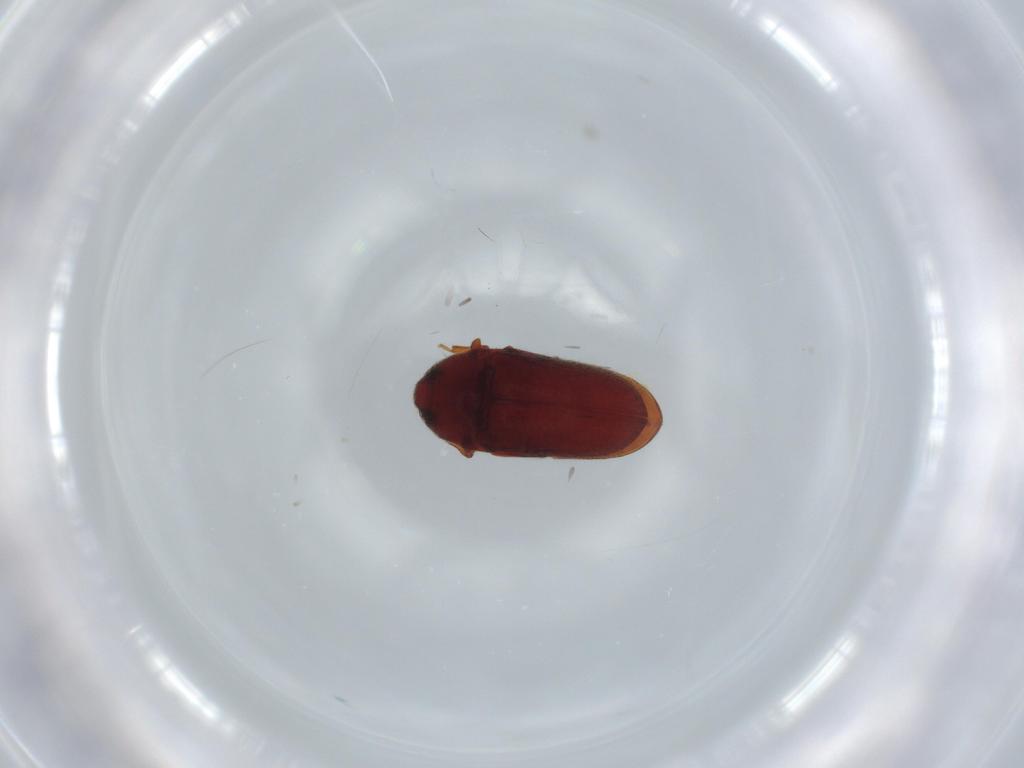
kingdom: Animalia
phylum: Arthropoda
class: Insecta
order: Coleoptera
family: Throscidae
